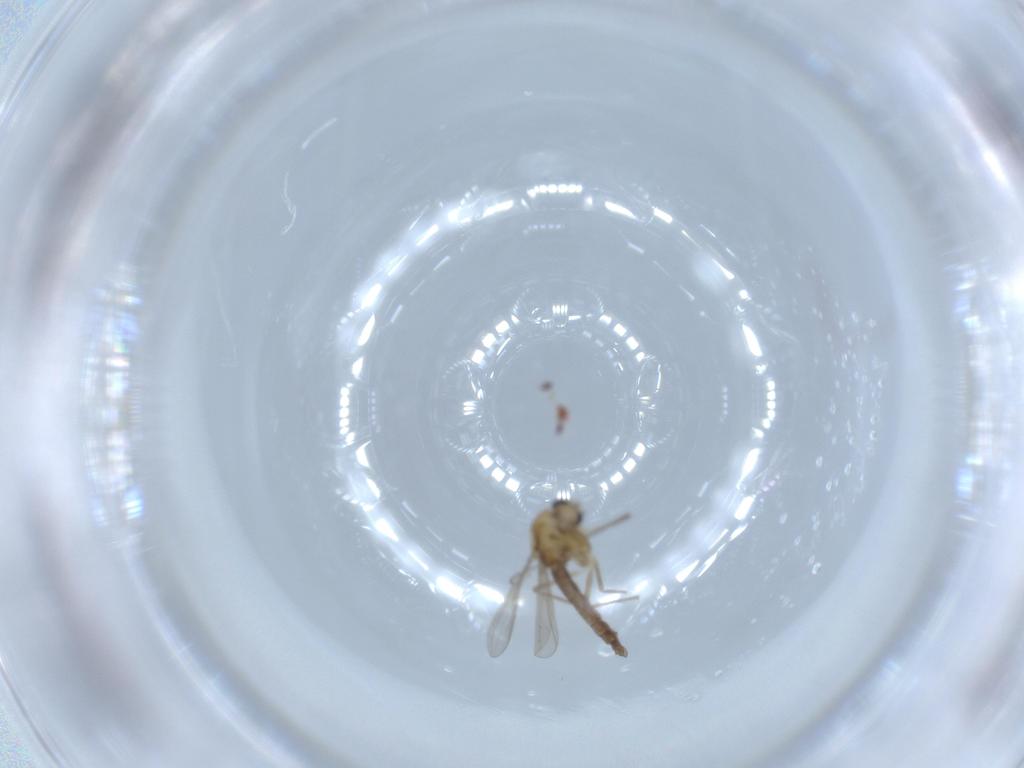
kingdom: Animalia
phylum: Arthropoda
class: Insecta
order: Diptera
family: Chironomidae
